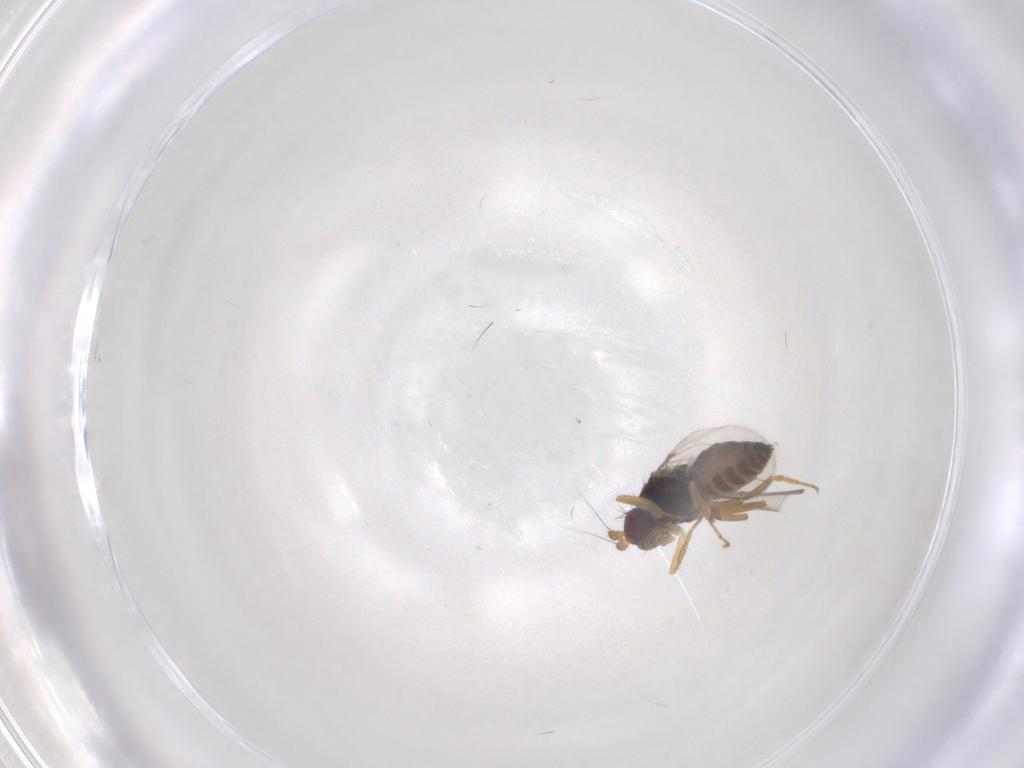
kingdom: Animalia
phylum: Arthropoda
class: Insecta
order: Diptera
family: Sphaeroceridae
